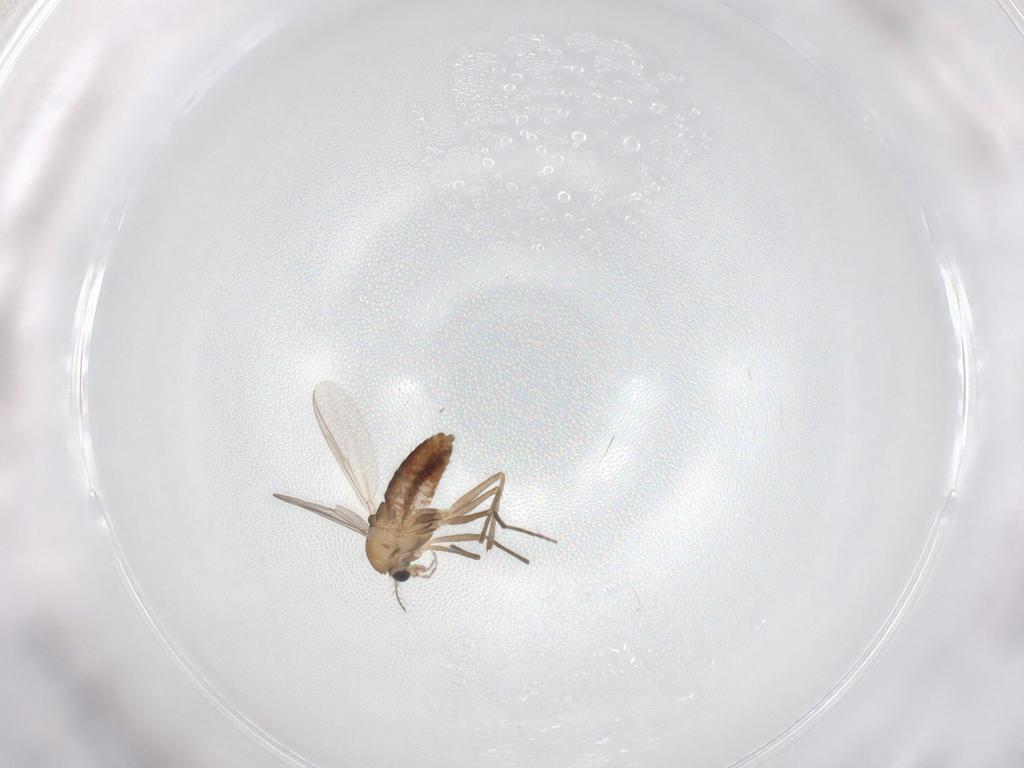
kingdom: Animalia
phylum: Arthropoda
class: Insecta
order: Diptera
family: Chironomidae
